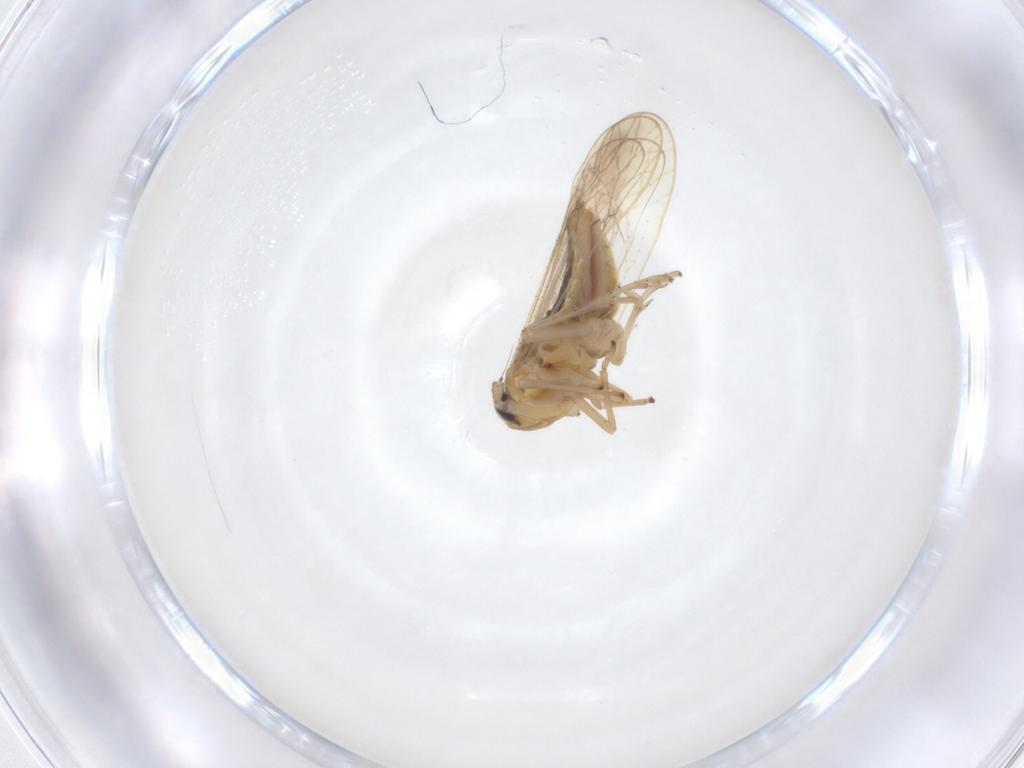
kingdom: Animalia
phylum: Arthropoda
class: Insecta
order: Hemiptera
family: Delphacidae
